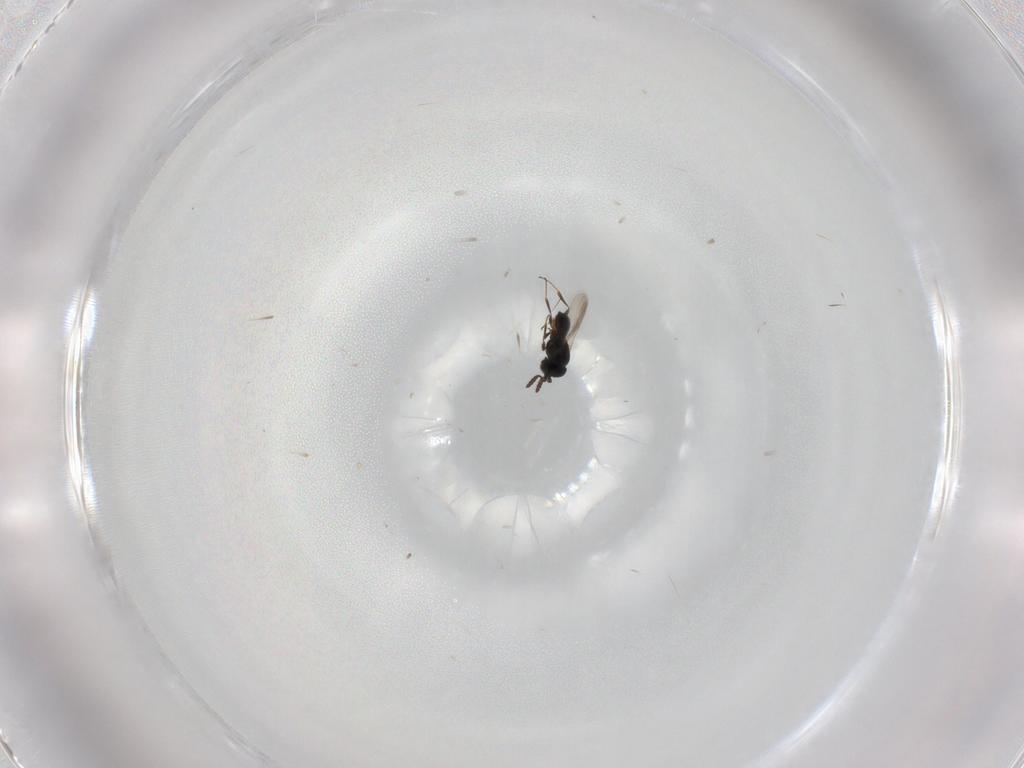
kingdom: Animalia
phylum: Arthropoda
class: Insecta
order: Hymenoptera
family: Scelionidae
